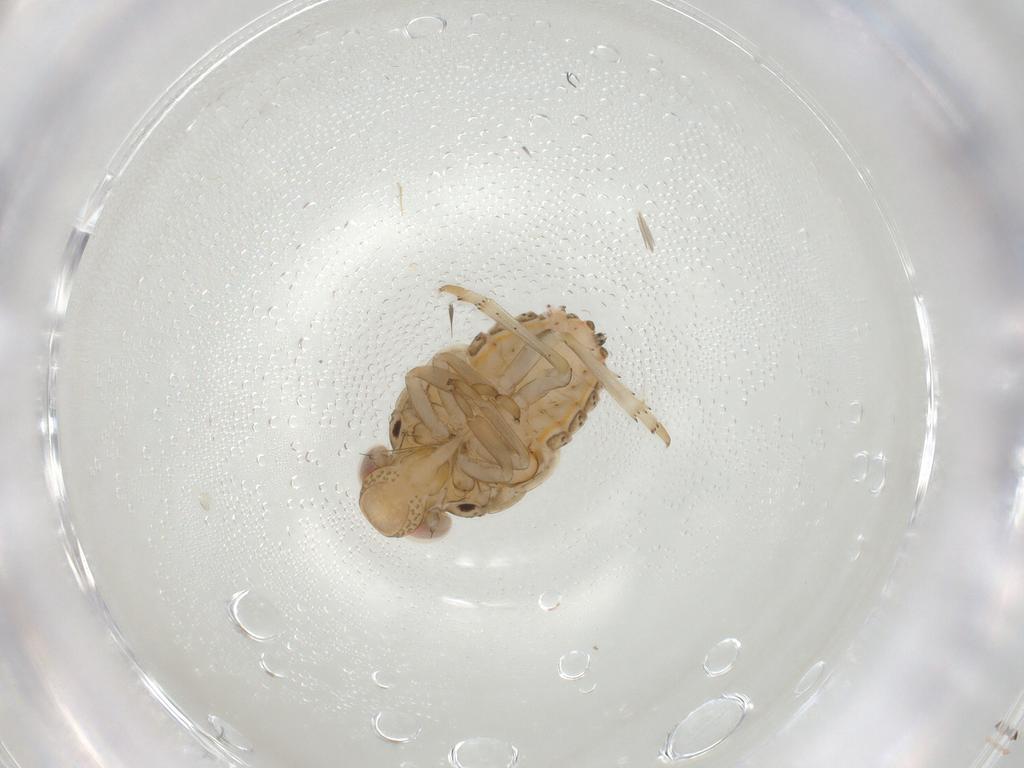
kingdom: Animalia
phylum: Arthropoda
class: Insecta
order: Hemiptera
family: Issidae
